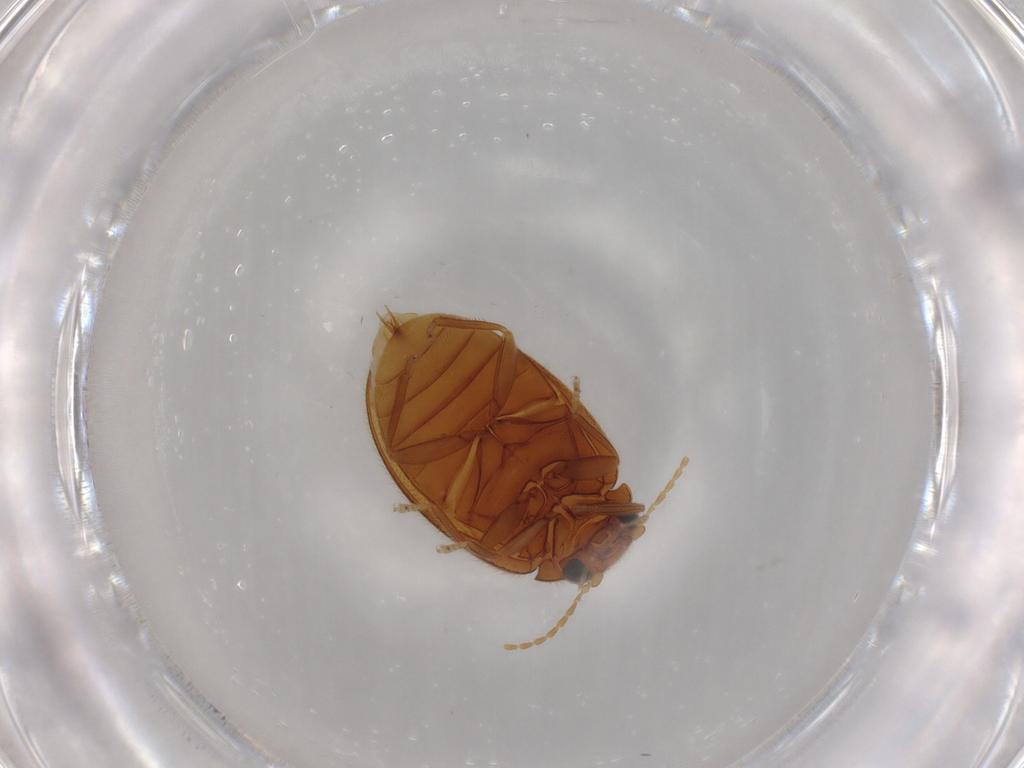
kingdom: Animalia
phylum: Arthropoda
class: Insecta
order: Coleoptera
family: Scirtidae
